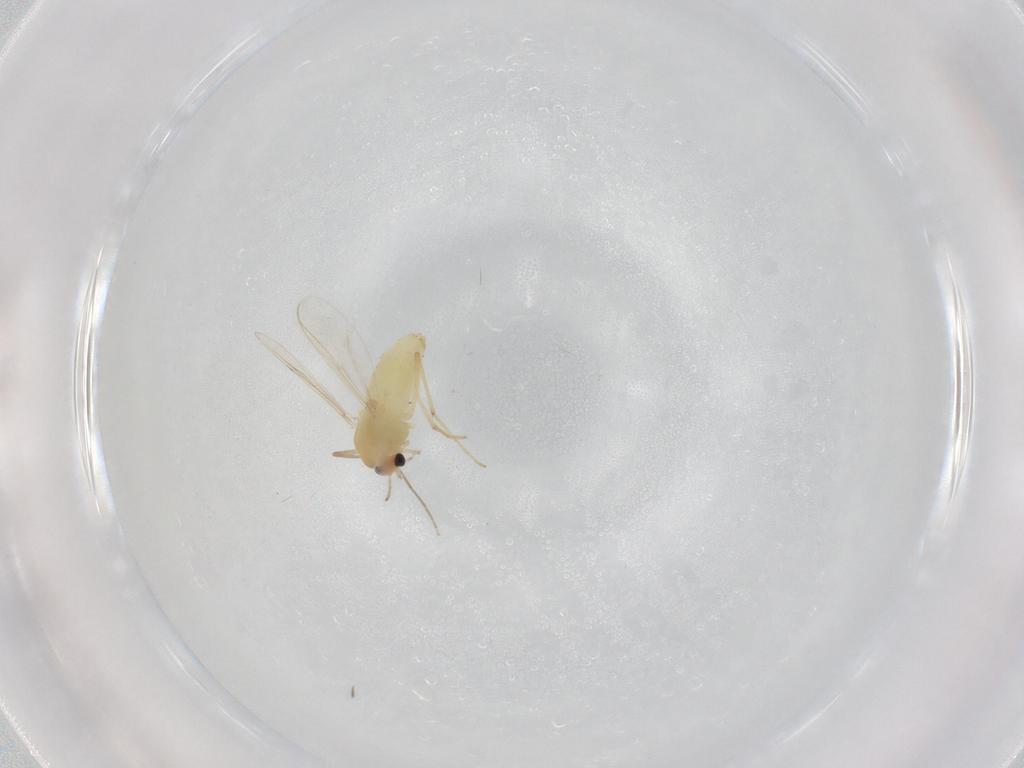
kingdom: Animalia
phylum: Arthropoda
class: Insecta
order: Diptera
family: Chironomidae
